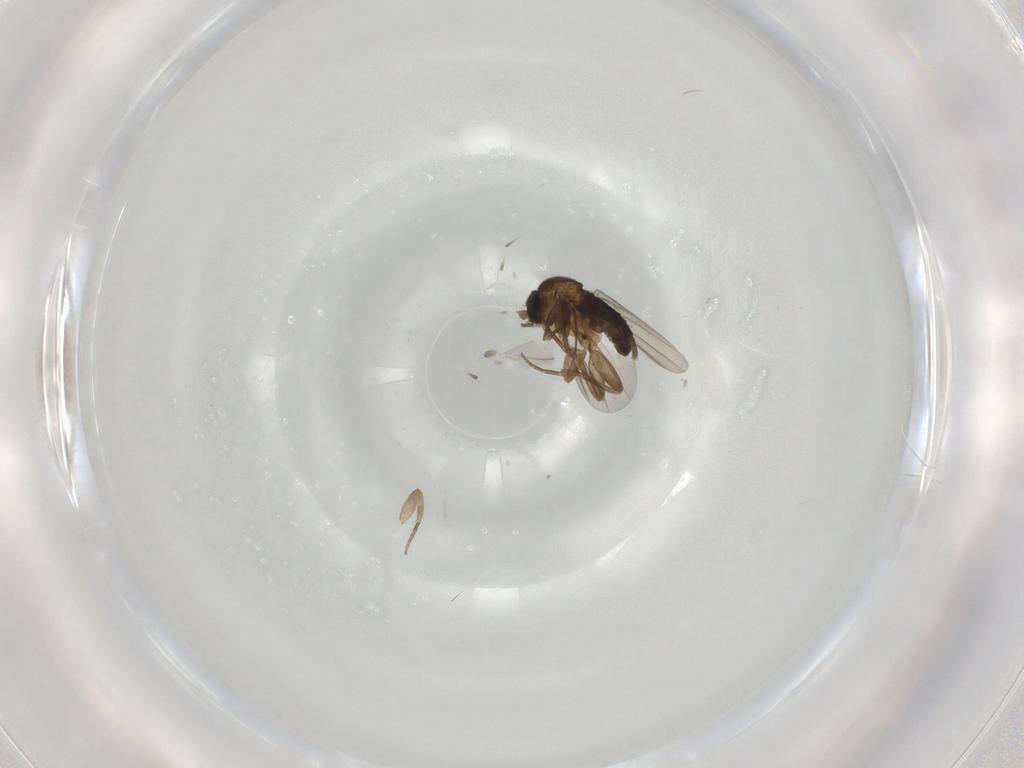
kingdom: Animalia
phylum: Arthropoda
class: Insecta
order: Diptera
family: Phoridae
